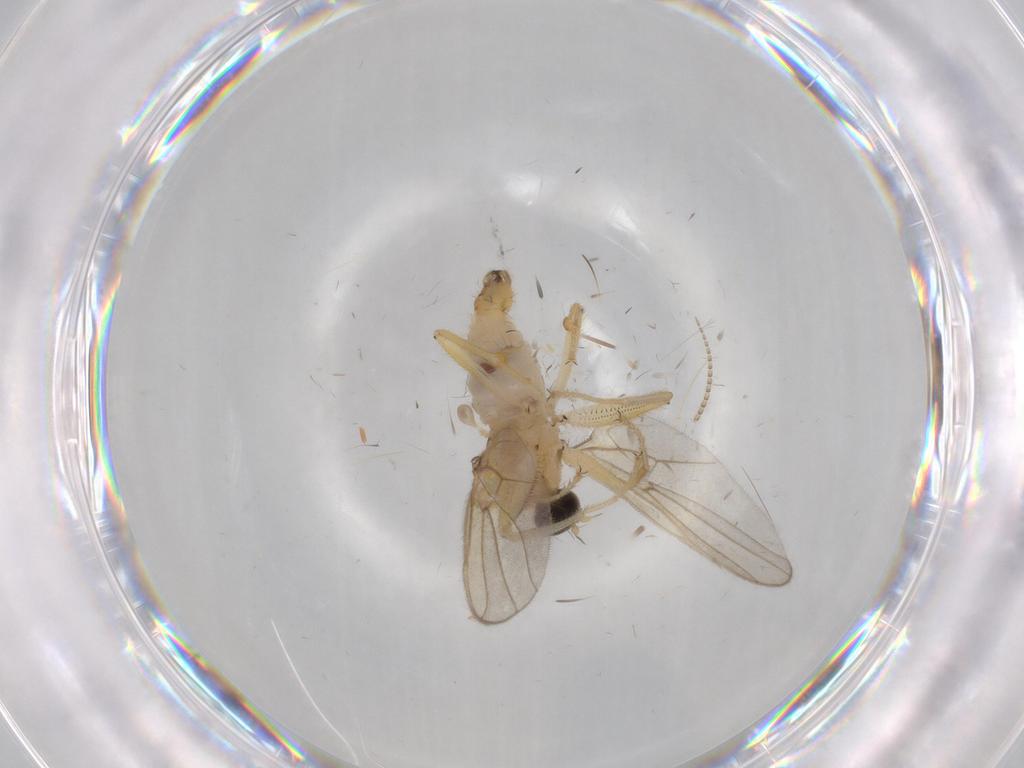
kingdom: Animalia
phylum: Arthropoda
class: Insecta
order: Diptera
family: Hybotidae
